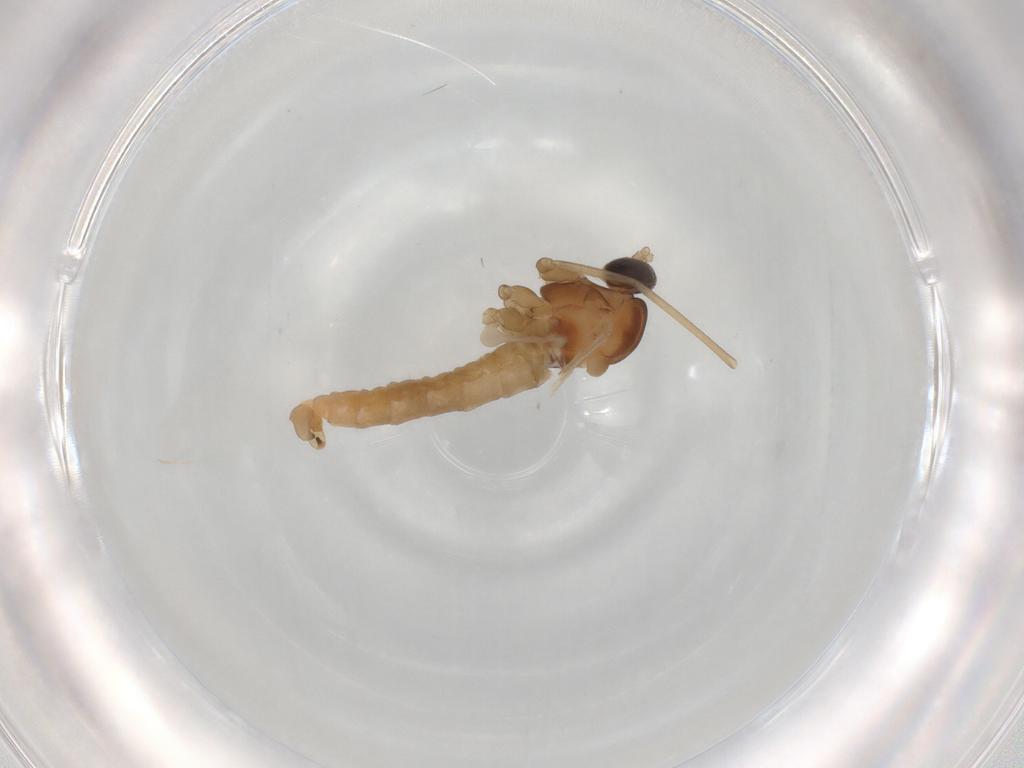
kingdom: Animalia
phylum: Arthropoda
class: Insecta
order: Diptera
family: Cecidomyiidae
